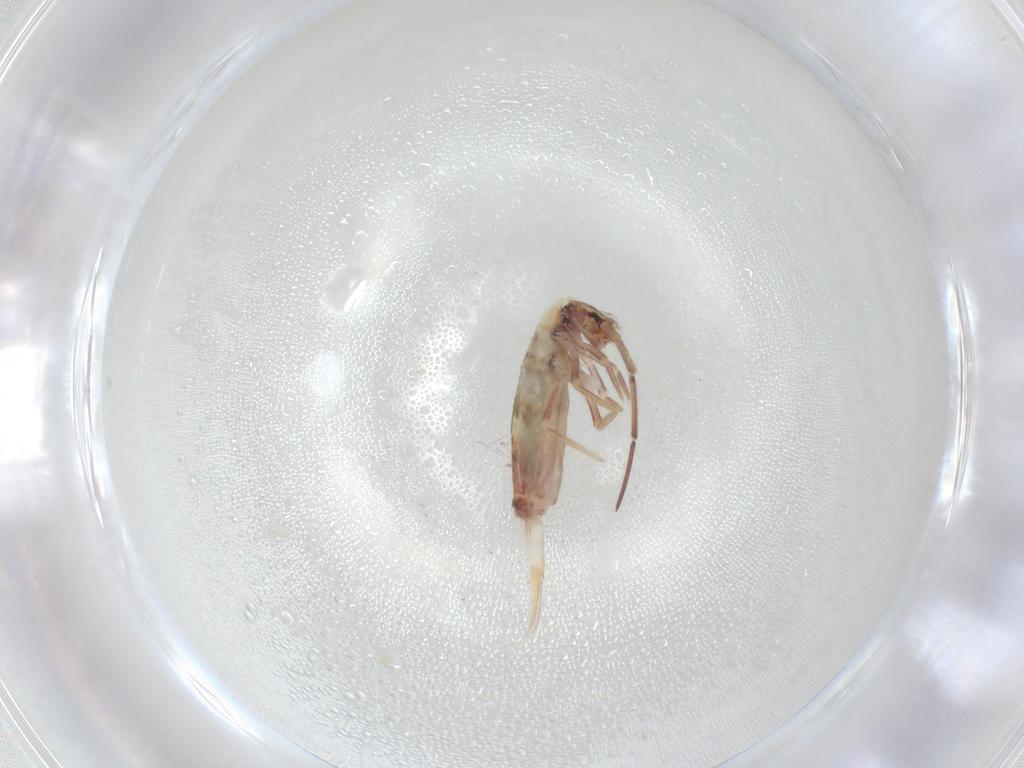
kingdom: Animalia
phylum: Arthropoda
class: Collembola
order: Entomobryomorpha
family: Entomobryidae
